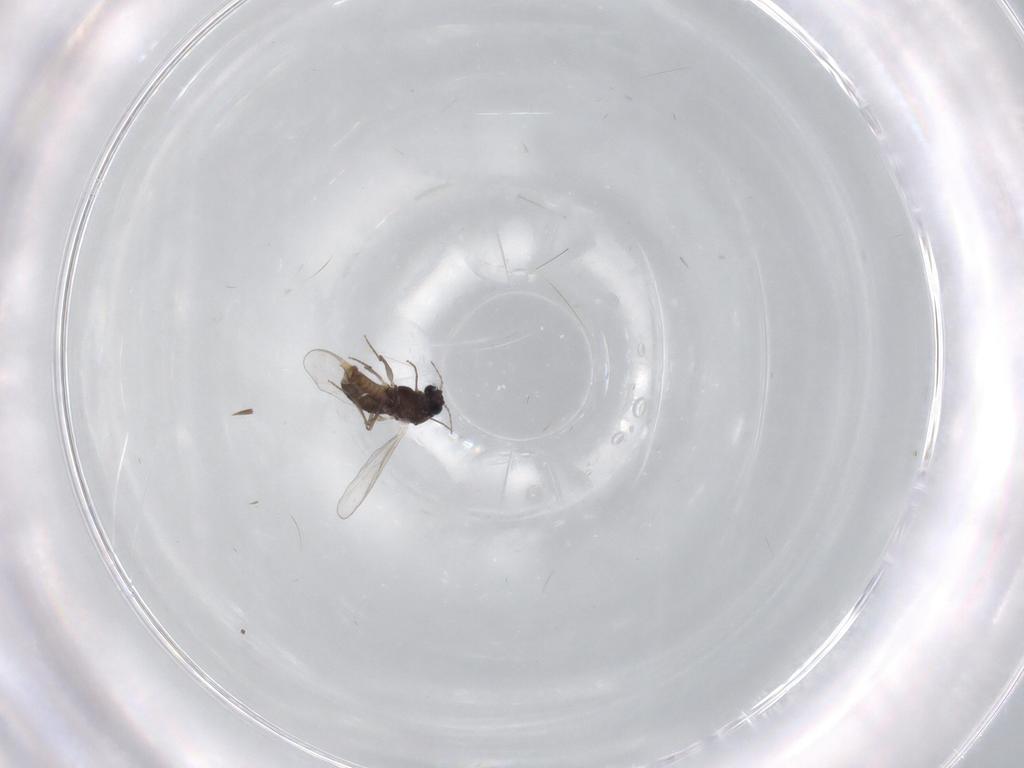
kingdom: Animalia
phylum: Arthropoda
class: Insecta
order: Diptera
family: Chironomidae
